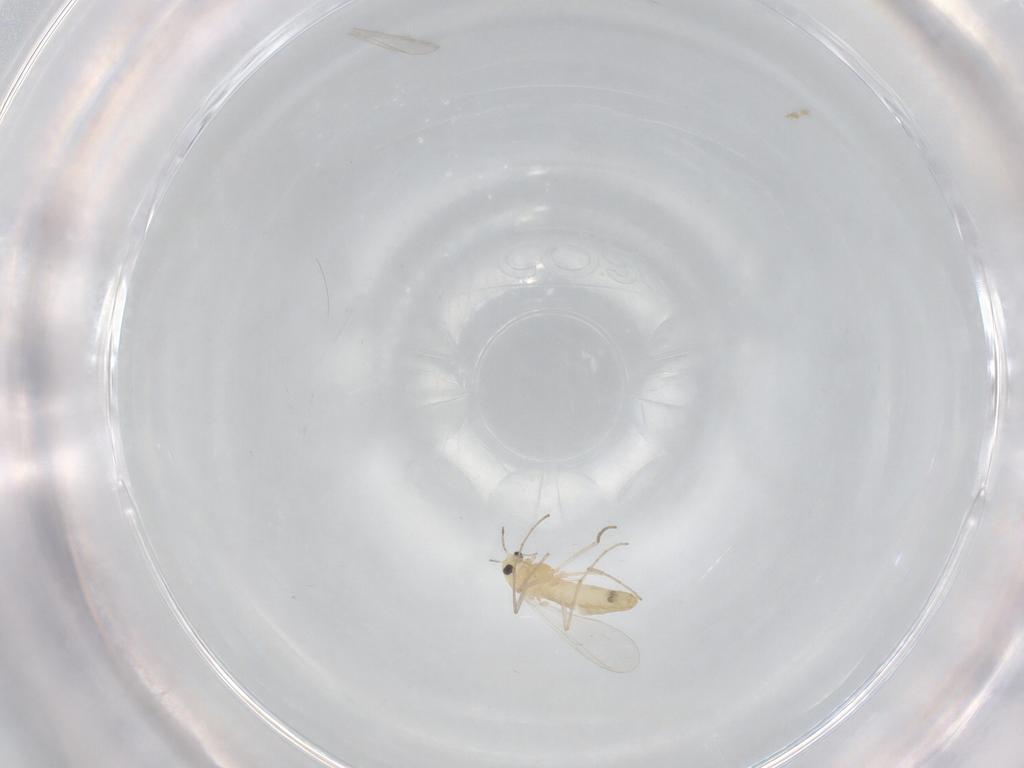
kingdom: Animalia
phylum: Arthropoda
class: Insecta
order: Diptera
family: Chironomidae
